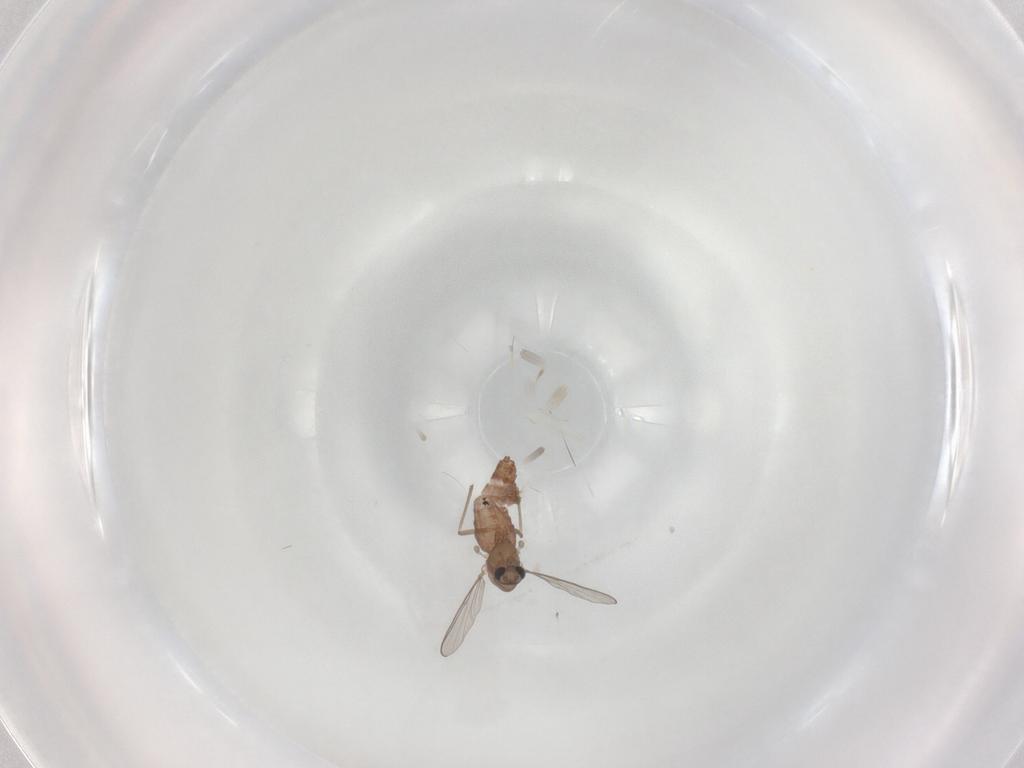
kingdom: Animalia
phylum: Arthropoda
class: Insecta
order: Diptera
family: Chironomidae
